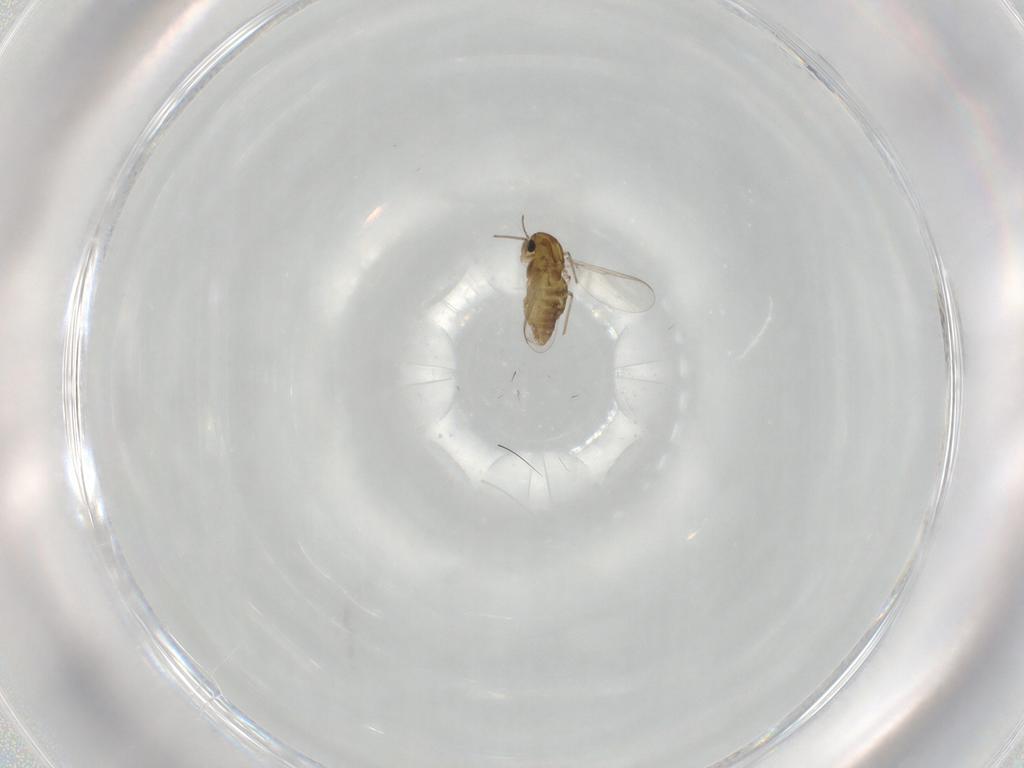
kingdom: Animalia
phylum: Arthropoda
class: Insecta
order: Diptera
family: Chironomidae
